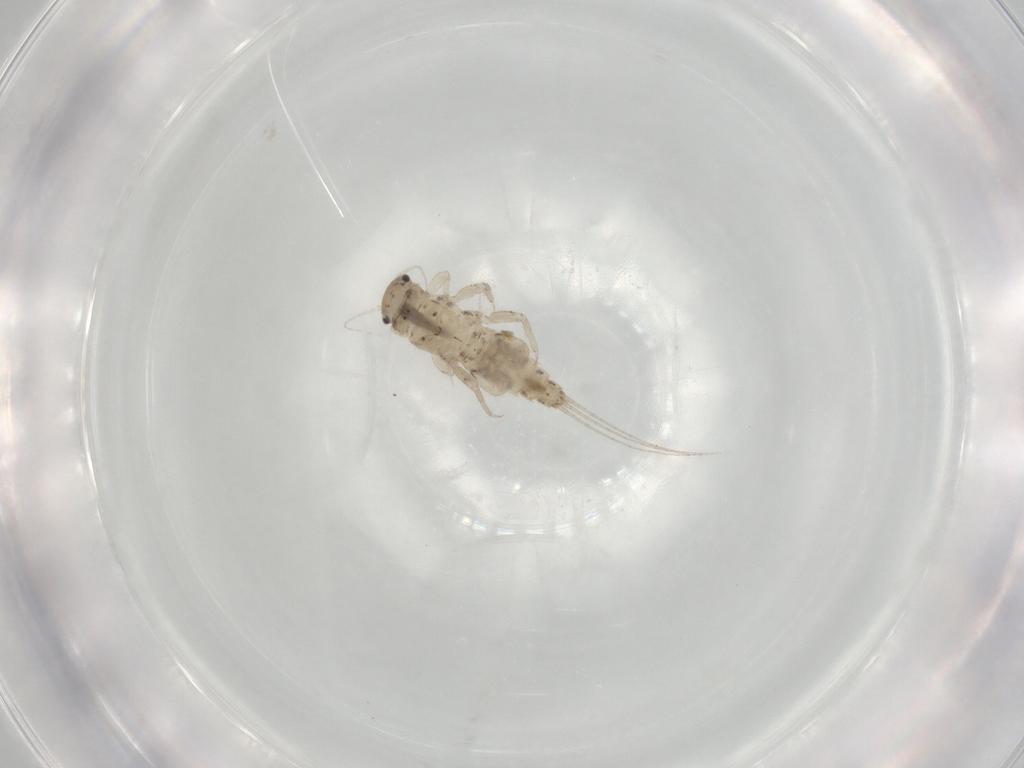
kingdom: Animalia
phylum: Arthropoda
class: Insecta
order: Ephemeroptera
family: Caenidae
